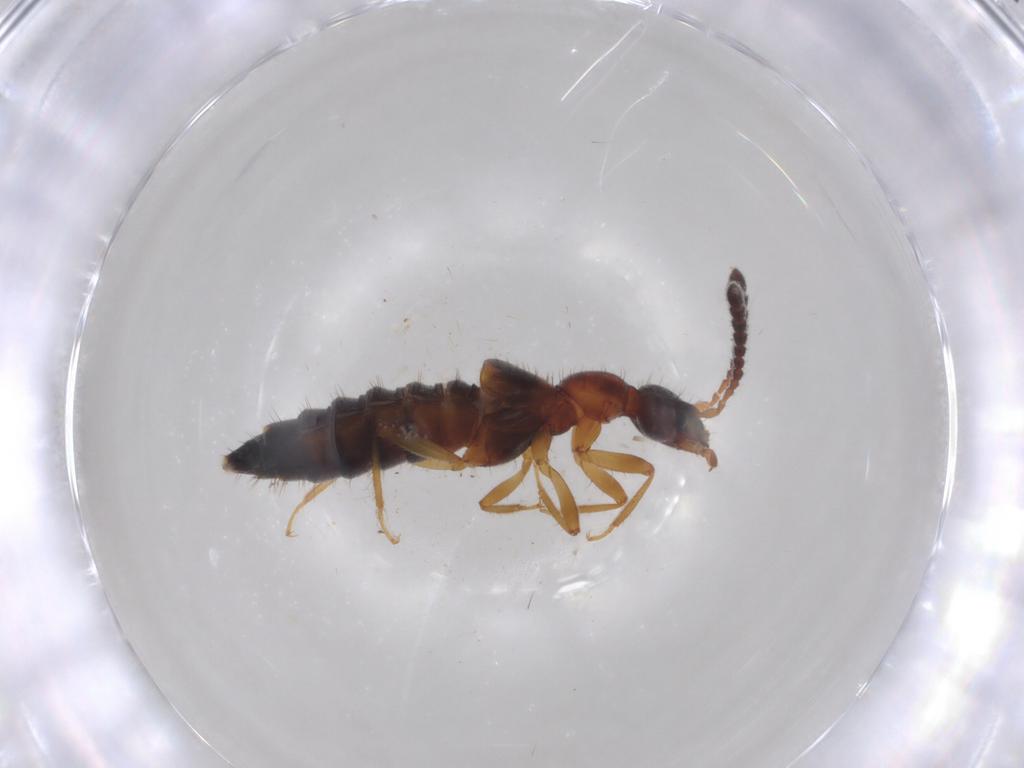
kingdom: Animalia
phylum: Arthropoda
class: Insecta
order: Coleoptera
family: Staphylinidae
